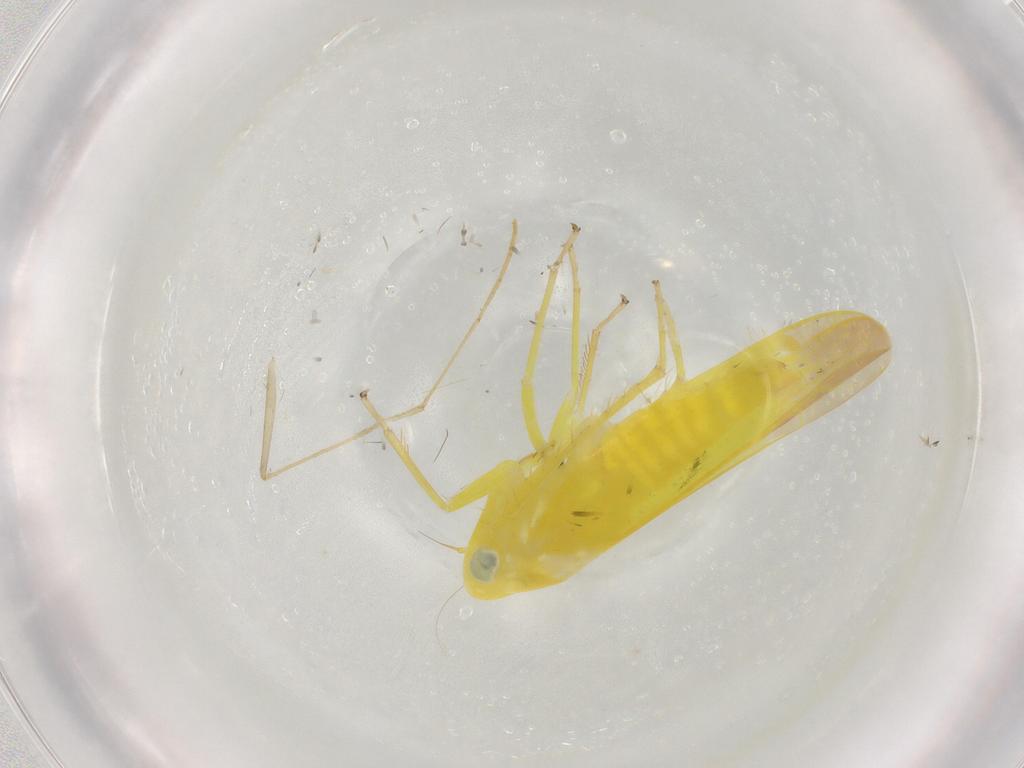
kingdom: Animalia
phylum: Arthropoda
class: Insecta
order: Hemiptera
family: Cicadellidae
